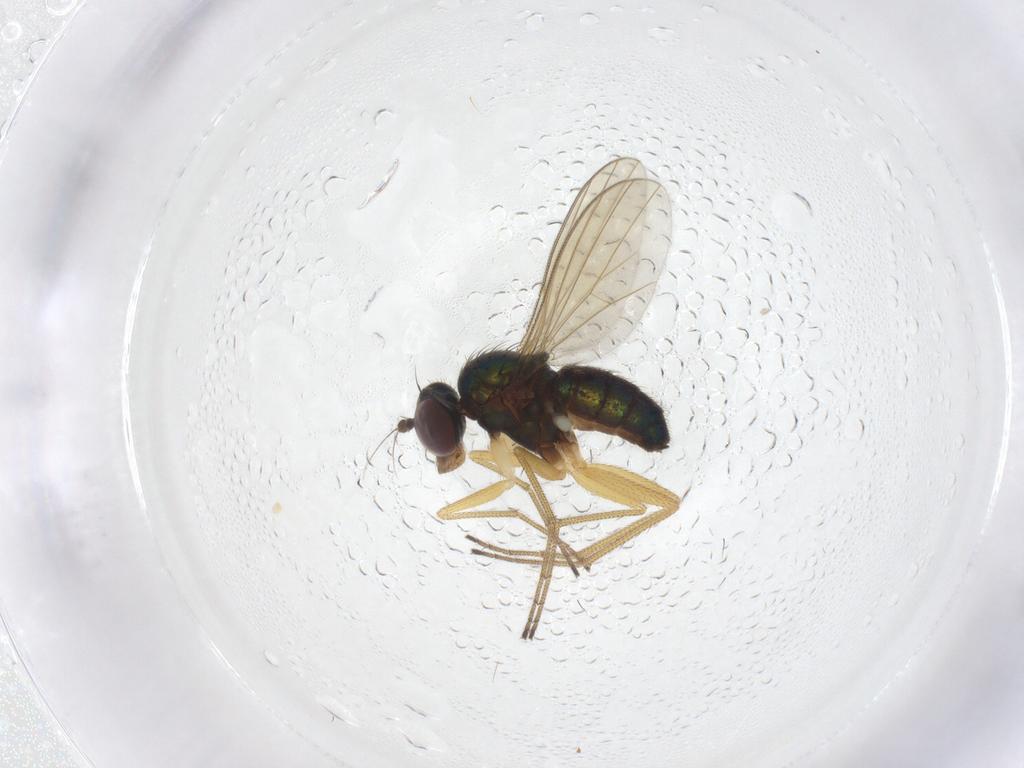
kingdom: Animalia
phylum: Arthropoda
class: Insecta
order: Diptera
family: Dolichopodidae
